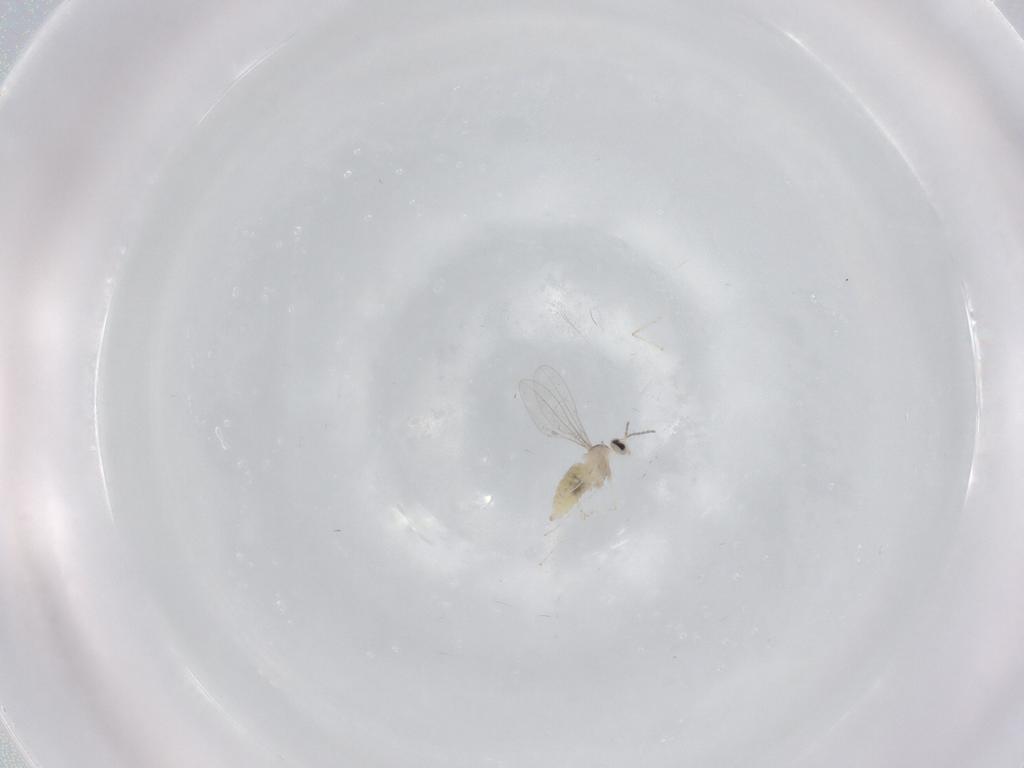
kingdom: Animalia
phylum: Arthropoda
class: Insecta
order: Diptera
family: Cecidomyiidae
